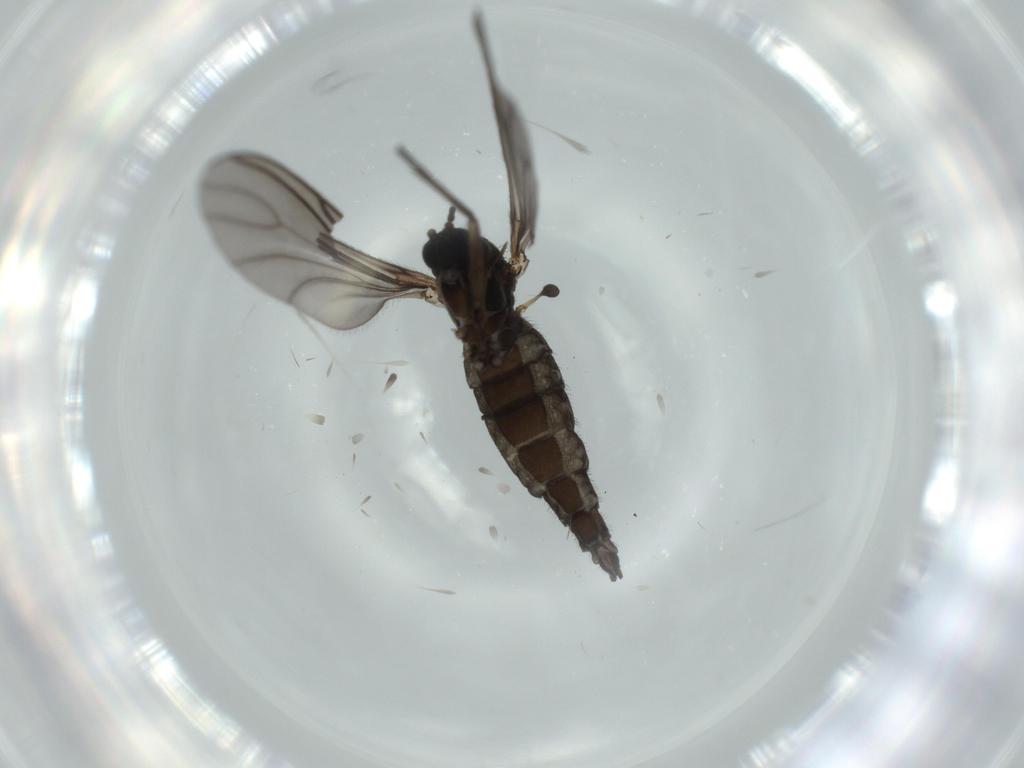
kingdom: Animalia
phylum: Arthropoda
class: Insecta
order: Diptera
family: Sciaridae
